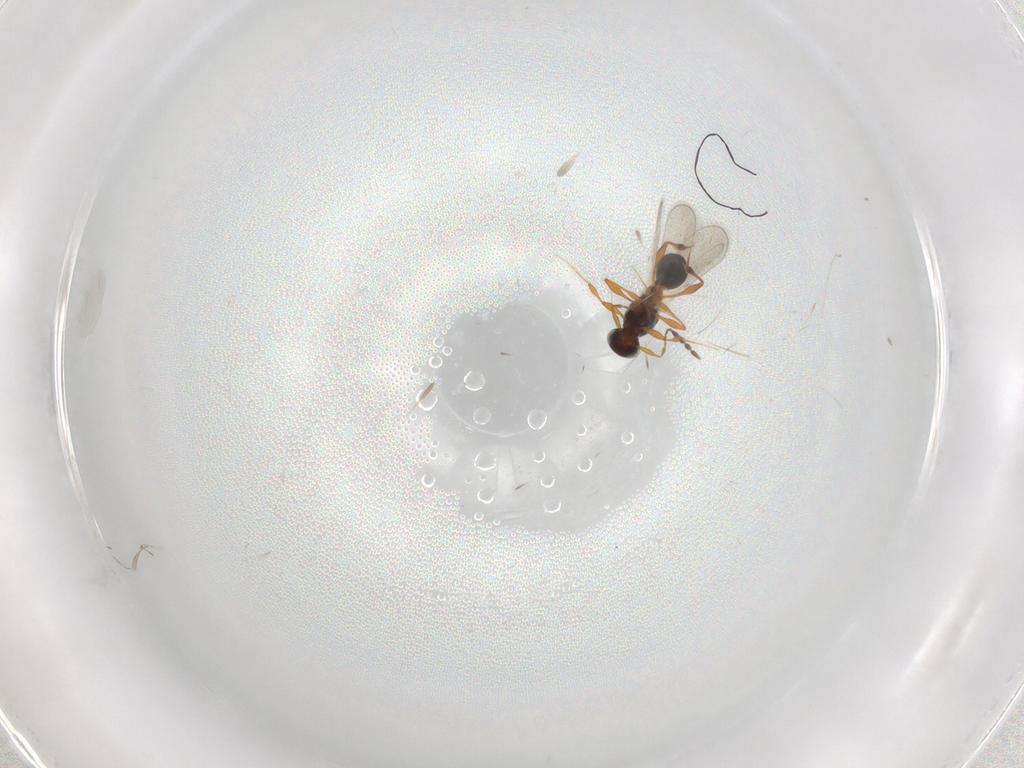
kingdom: Animalia
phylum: Arthropoda
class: Insecta
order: Hymenoptera
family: Platygastridae
